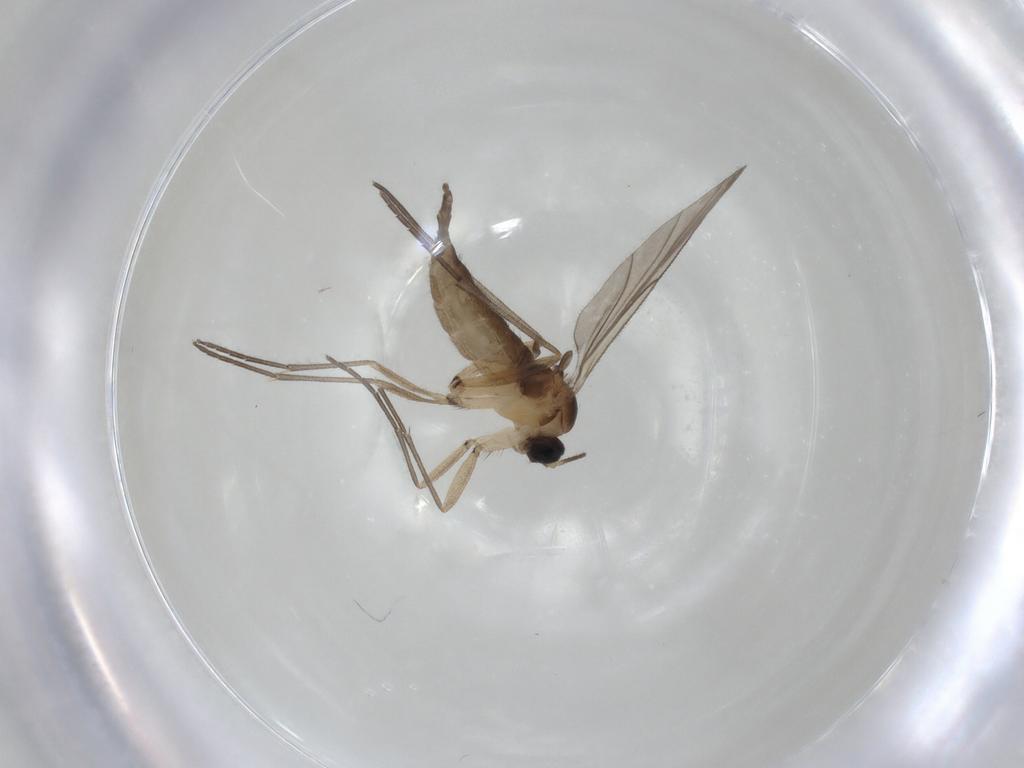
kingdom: Animalia
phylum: Arthropoda
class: Insecta
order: Diptera
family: Sciaridae
